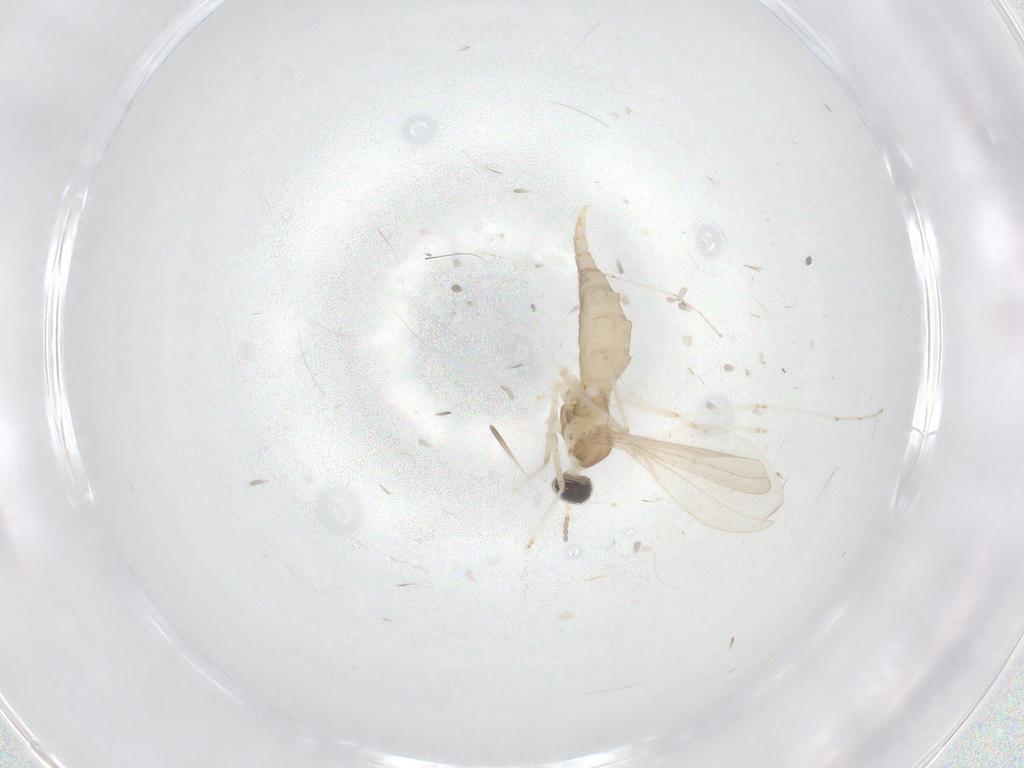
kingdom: Animalia
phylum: Arthropoda
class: Insecta
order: Diptera
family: Cecidomyiidae
